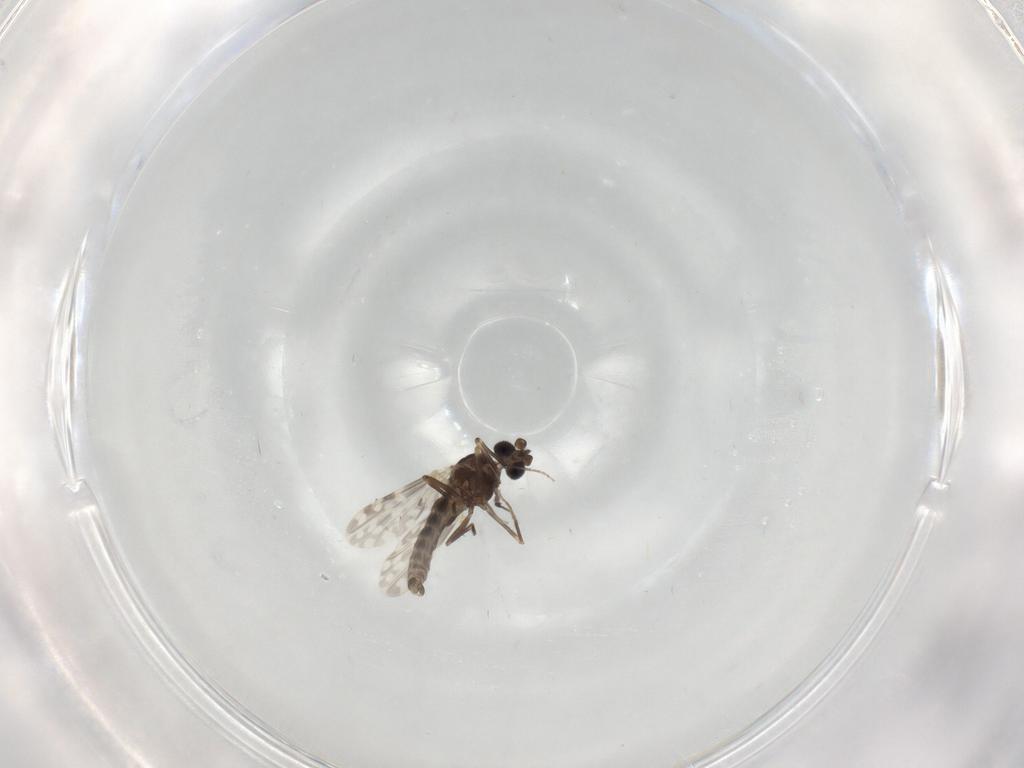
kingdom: Animalia
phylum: Arthropoda
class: Insecta
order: Diptera
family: Ceratopogonidae
